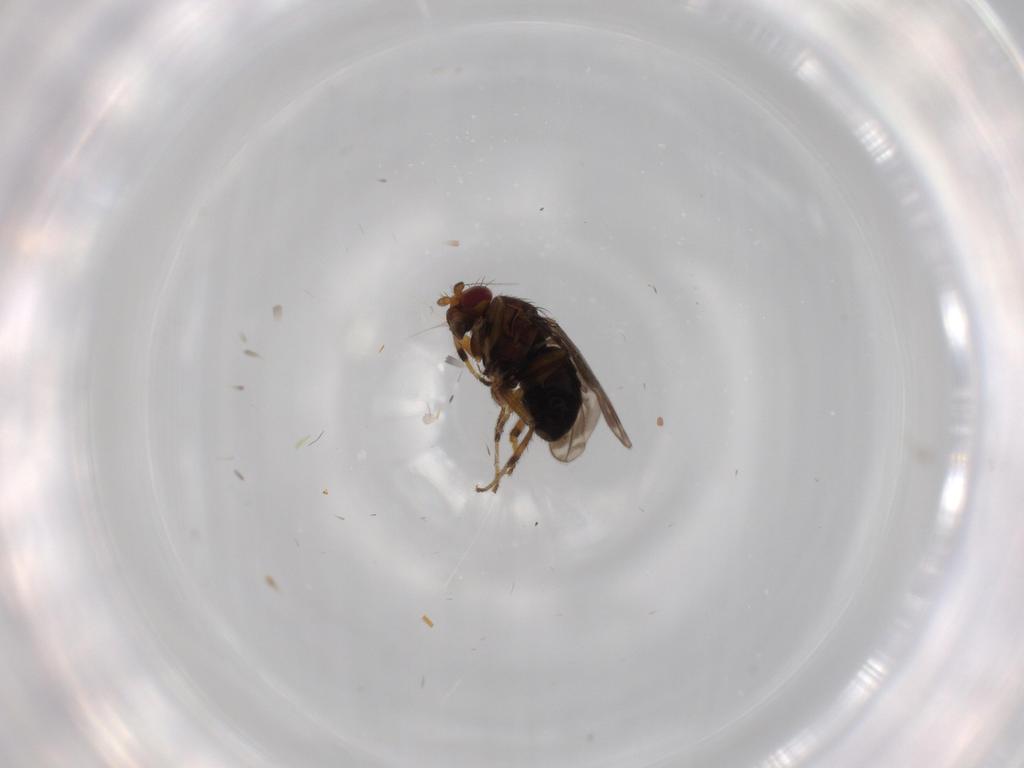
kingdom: Animalia
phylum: Arthropoda
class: Insecta
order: Diptera
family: Sphaeroceridae
